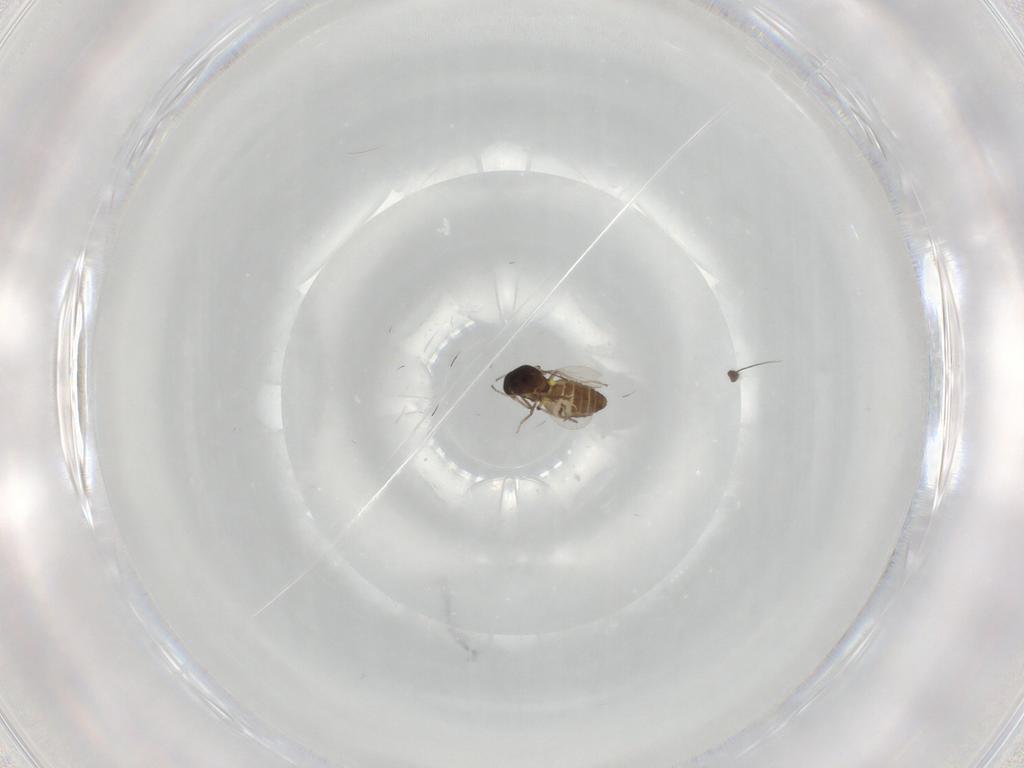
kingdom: Animalia
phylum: Arthropoda
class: Insecta
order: Diptera
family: Ceratopogonidae
